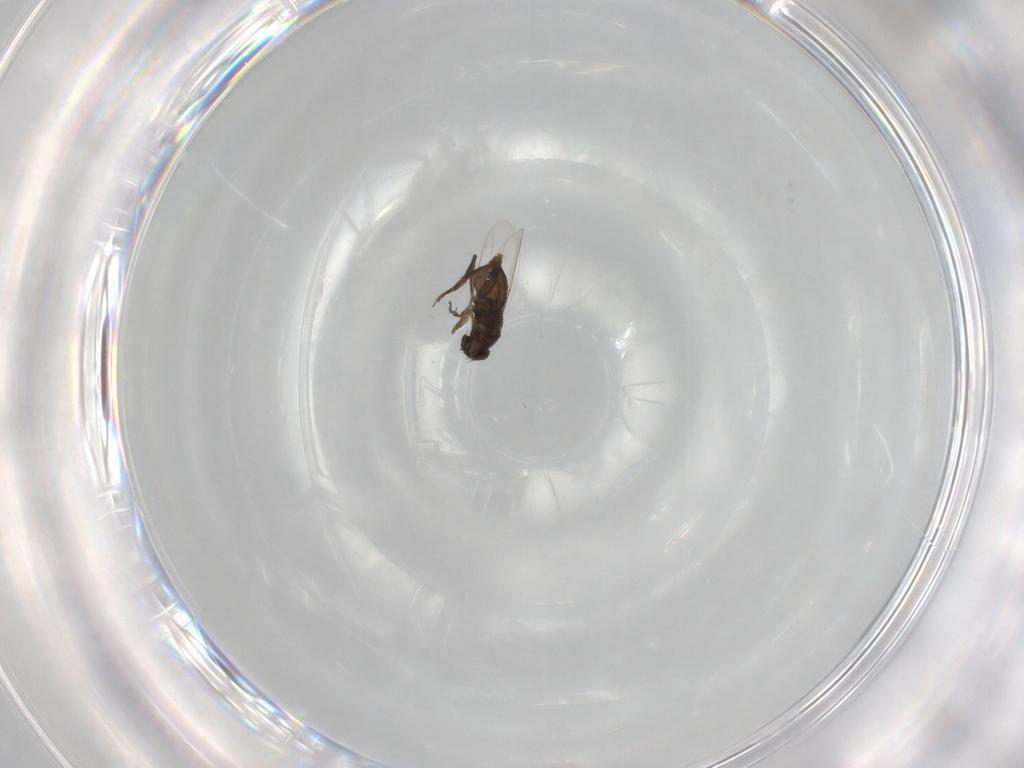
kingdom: Animalia
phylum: Arthropoda
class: Insecta
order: Diptera
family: Phoridae
